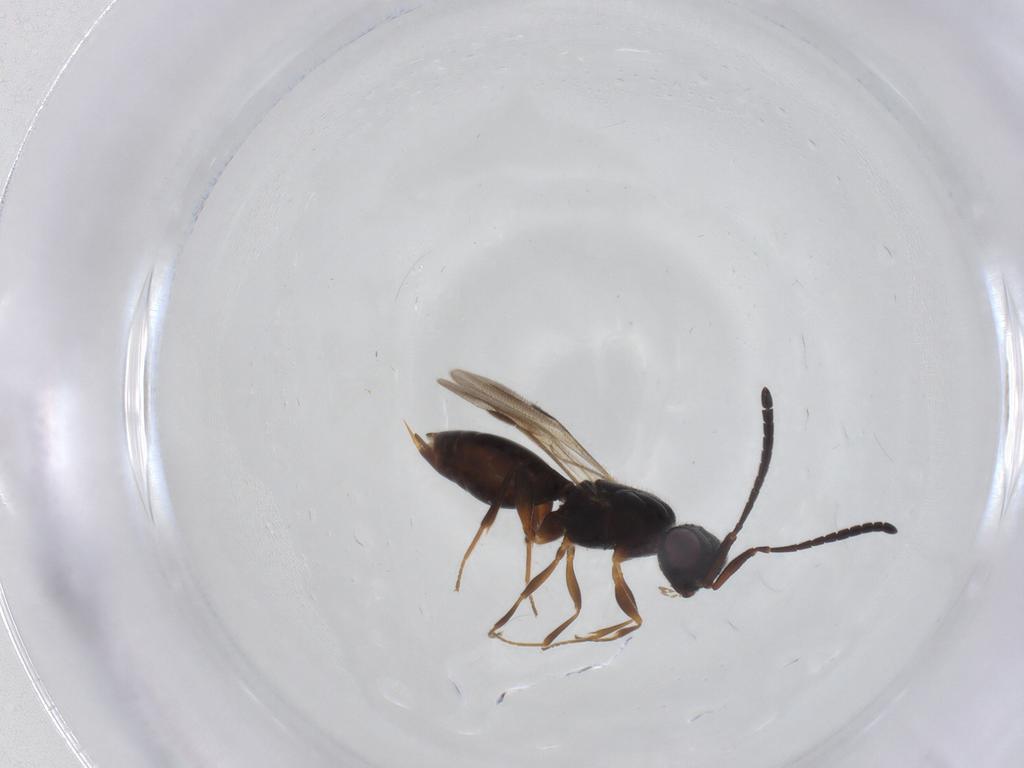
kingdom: Animalia
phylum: Arthropoda
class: Insecta
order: Hymenoptera
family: Megaspilidae
